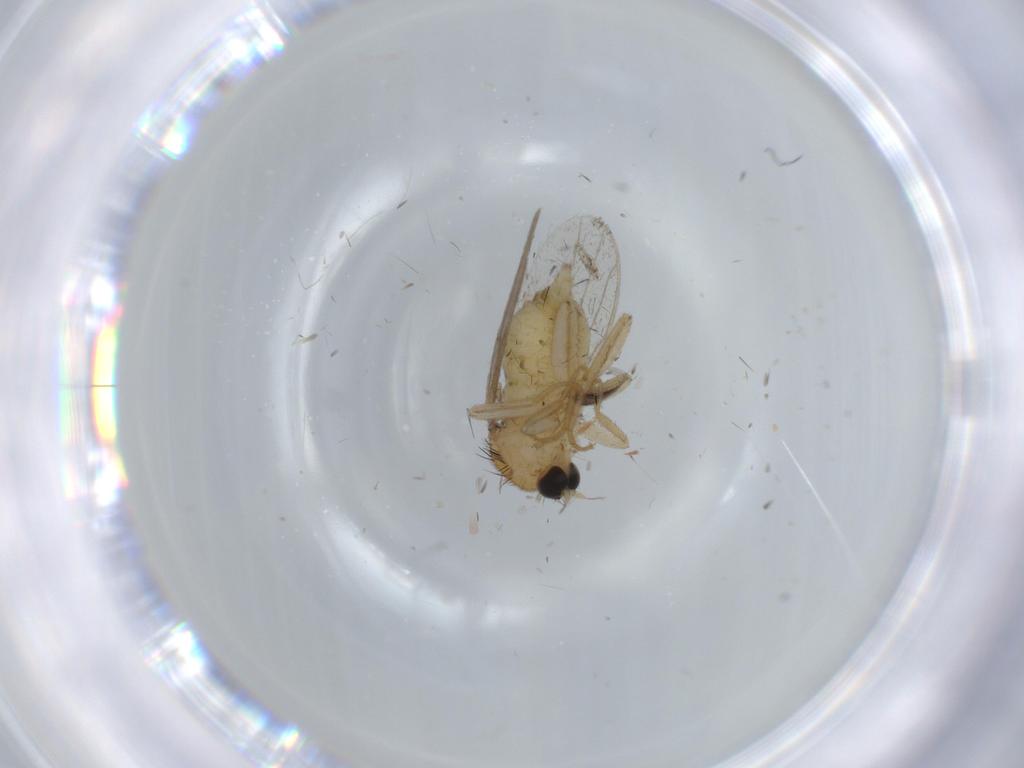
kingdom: Animalia
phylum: Arthropoda
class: Insecta
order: Diptera
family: Hybotidae
